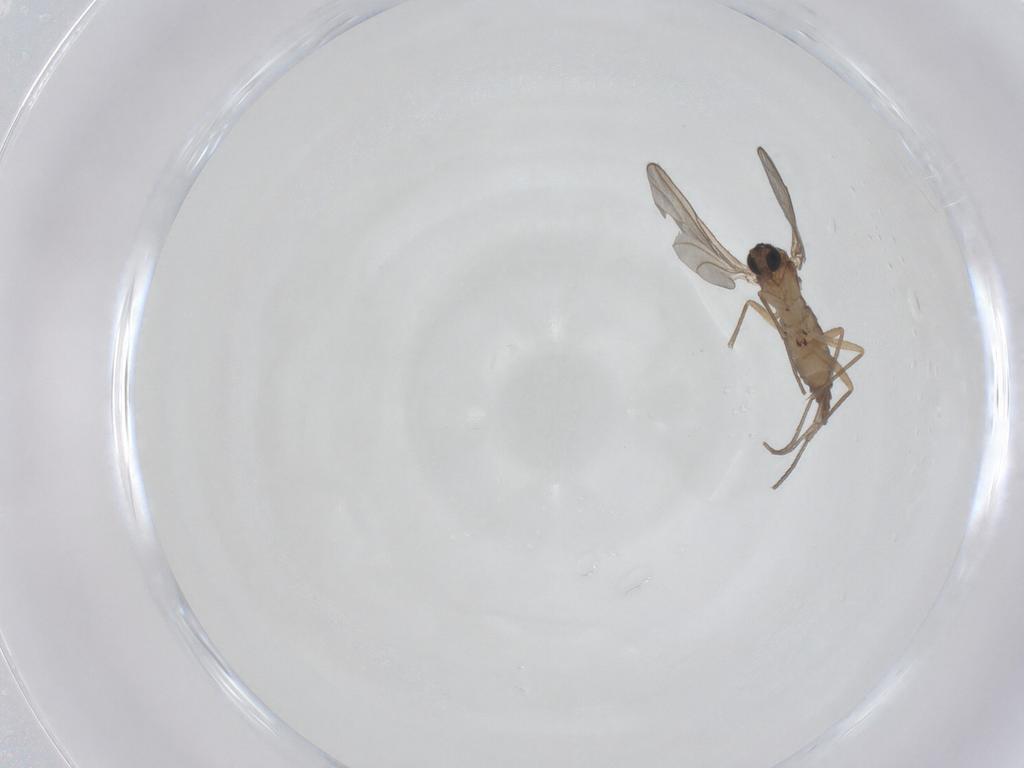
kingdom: Animalia
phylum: Arthropoda
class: Insecta
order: Diptera
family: Sciaridae
